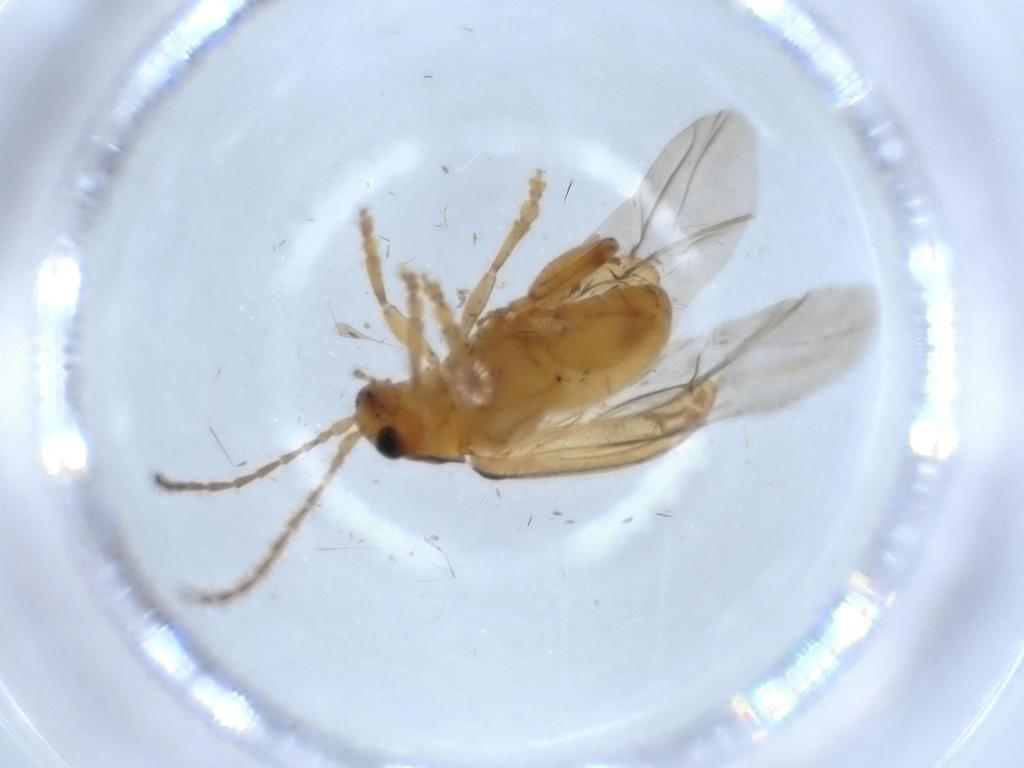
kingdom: Animalia
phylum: Arthropoda
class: Insecta
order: Coleoptera
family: Chrysomelidae
